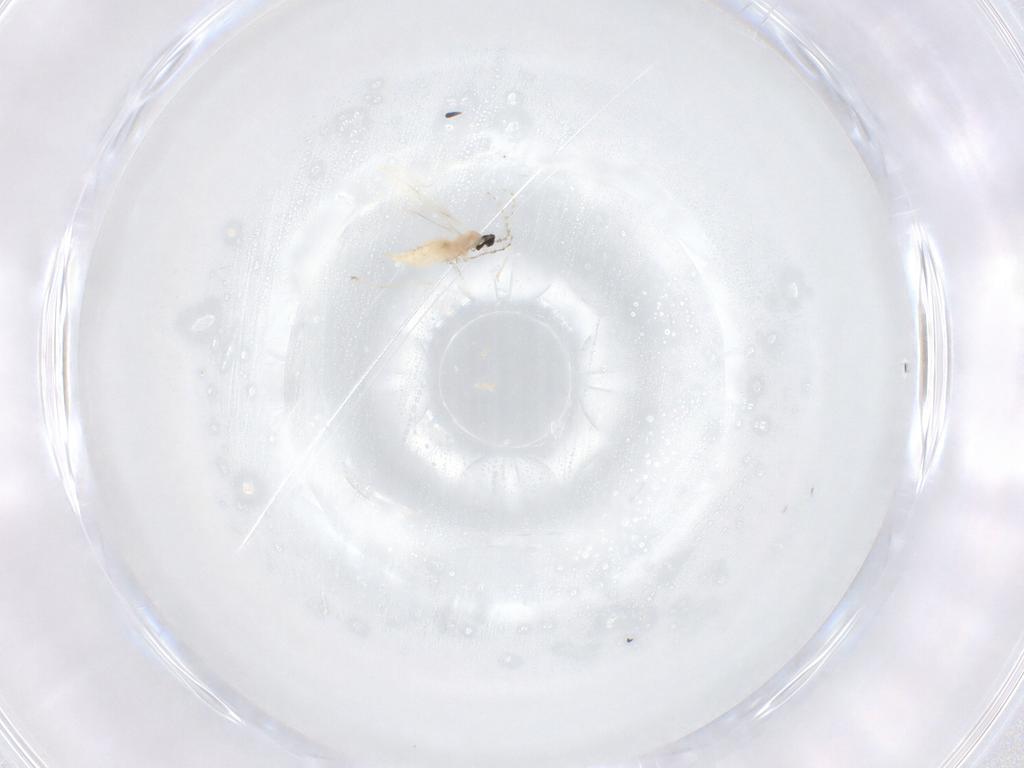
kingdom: Animalia
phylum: Arthropoda
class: Insecta
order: Diptera
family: Cecidomyiidae
